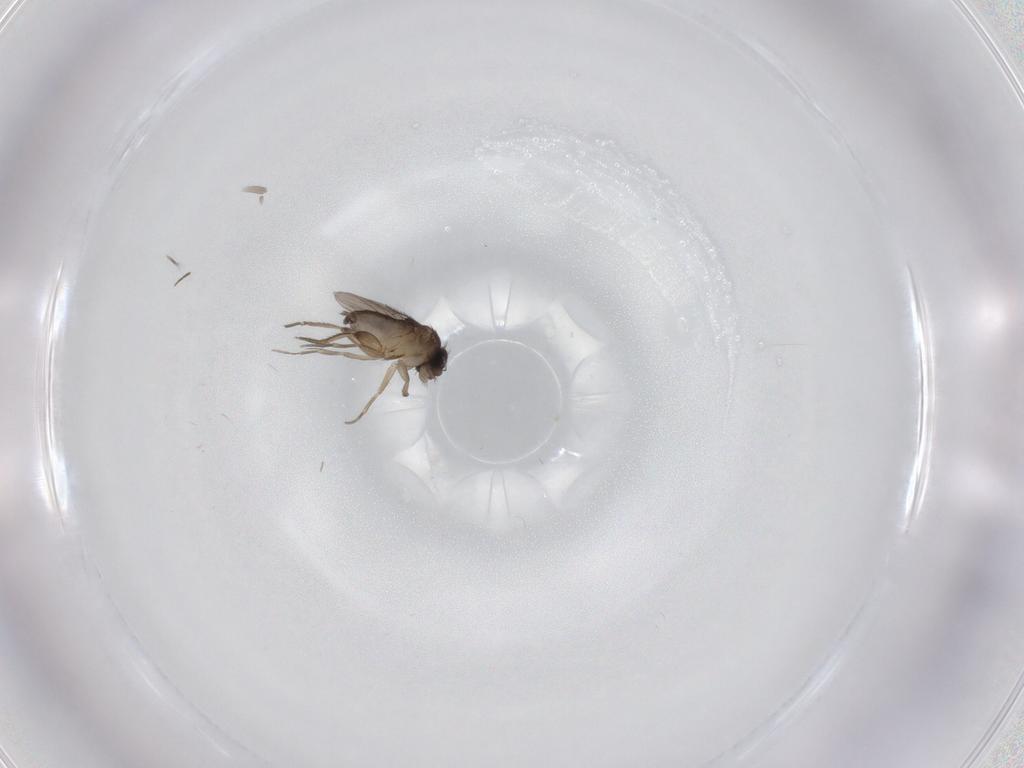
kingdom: Animalia
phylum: Arthropoda
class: Insecta
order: Diptera
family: Phoridae
